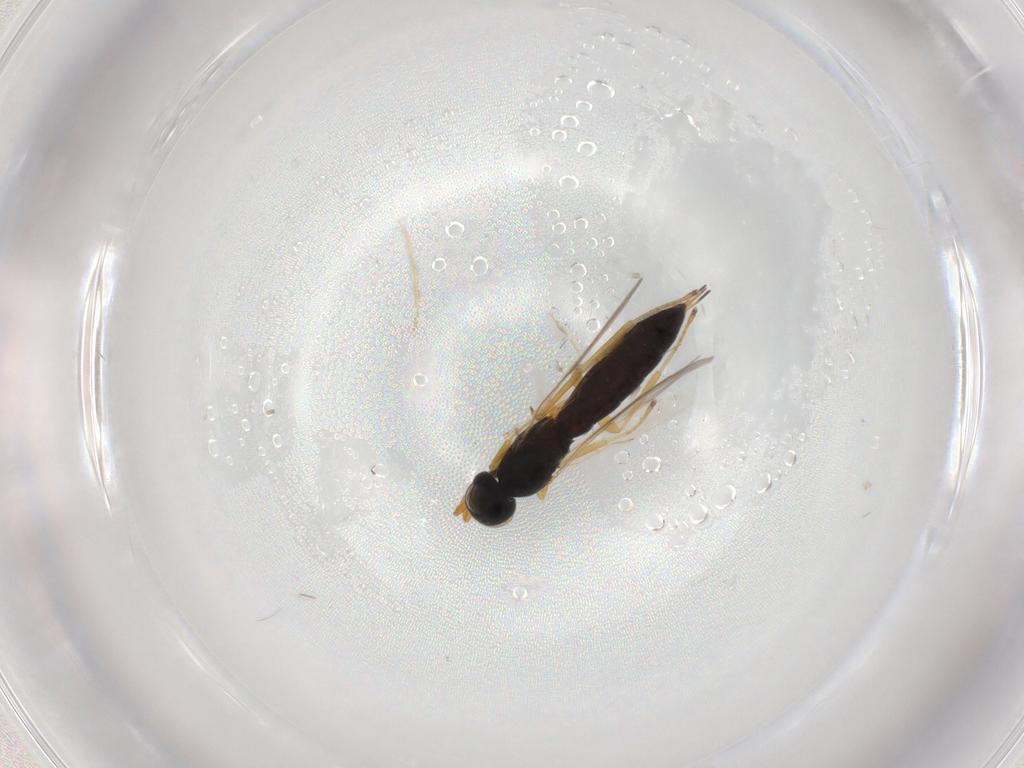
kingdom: Animalia
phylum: Arthropoda
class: Insecta
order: Hymenoptera
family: Scelionidae
